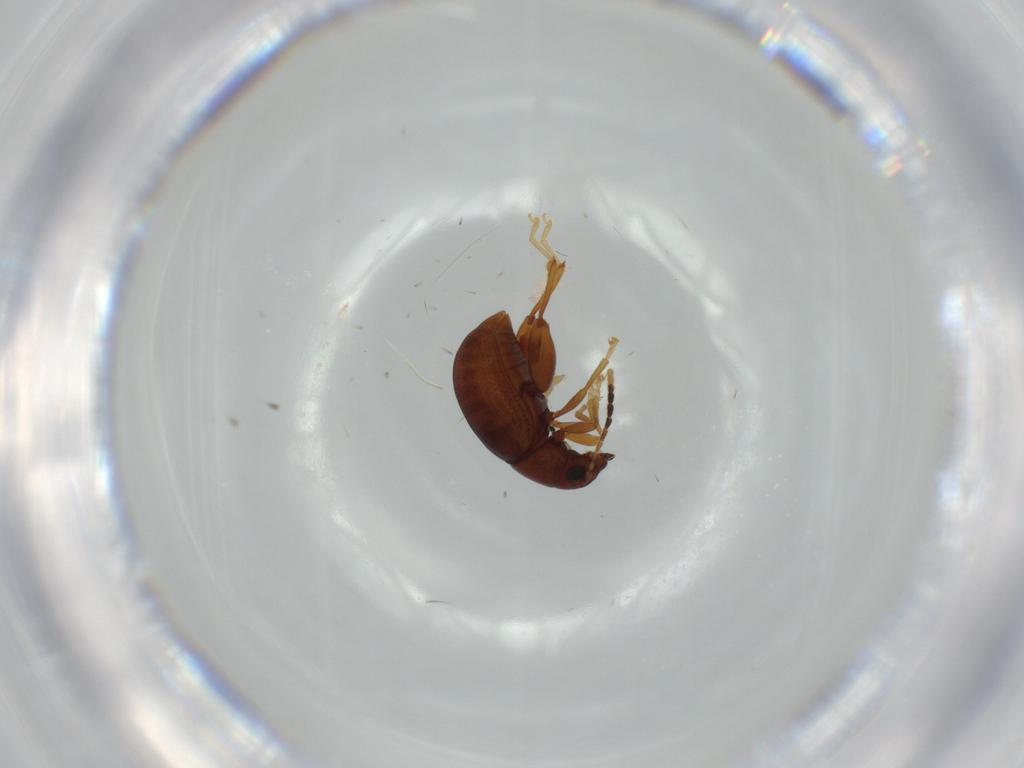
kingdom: Animalia
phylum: Arthropoda
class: Insecta
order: Coleoptera
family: Chrysomelidae
